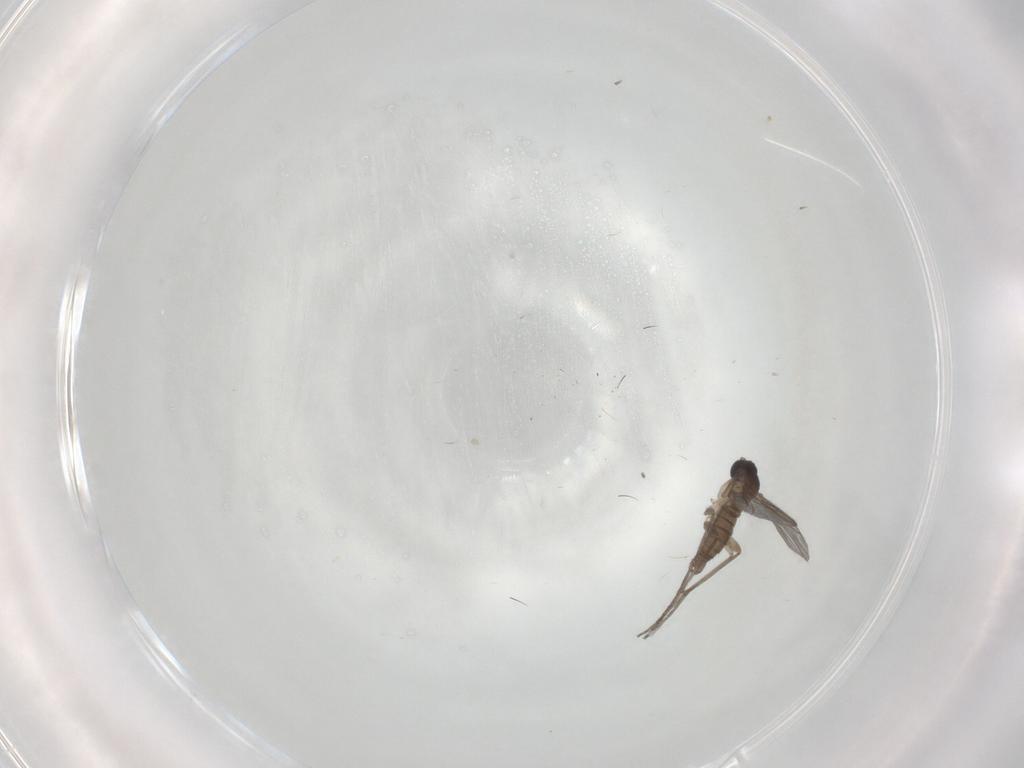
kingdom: Animalia
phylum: Arthropoda
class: Insecta
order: Diptera
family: Sciaridae
